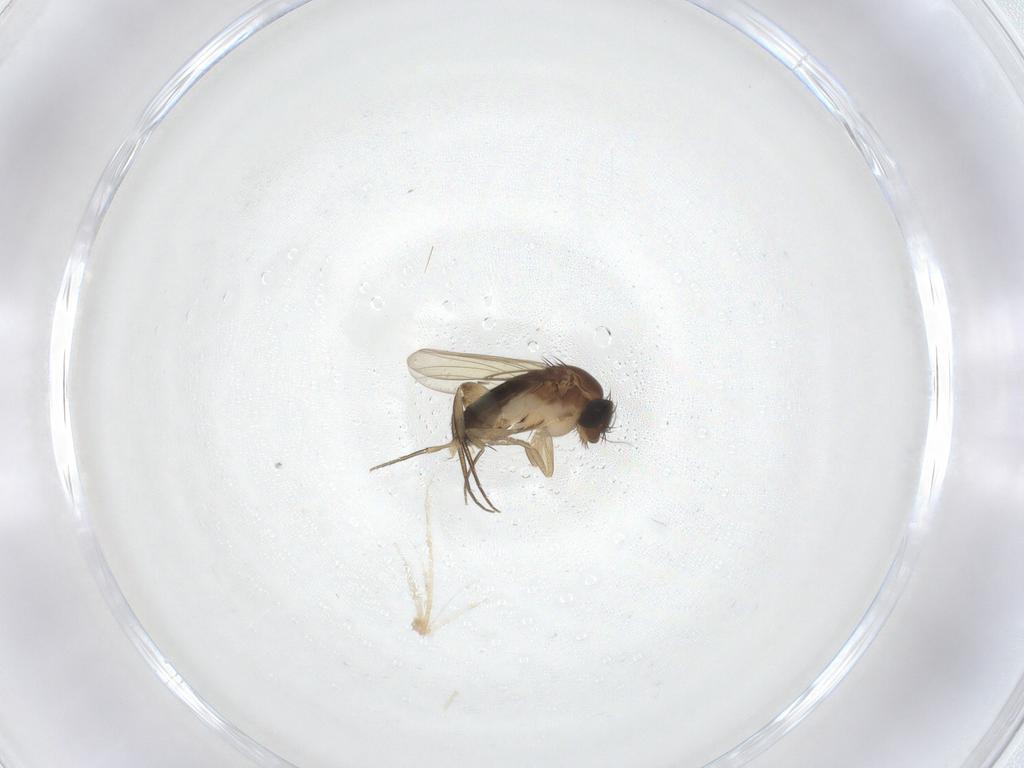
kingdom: Animalia
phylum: Arthropoda
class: Insecta
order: Diptera
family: Phoridae
